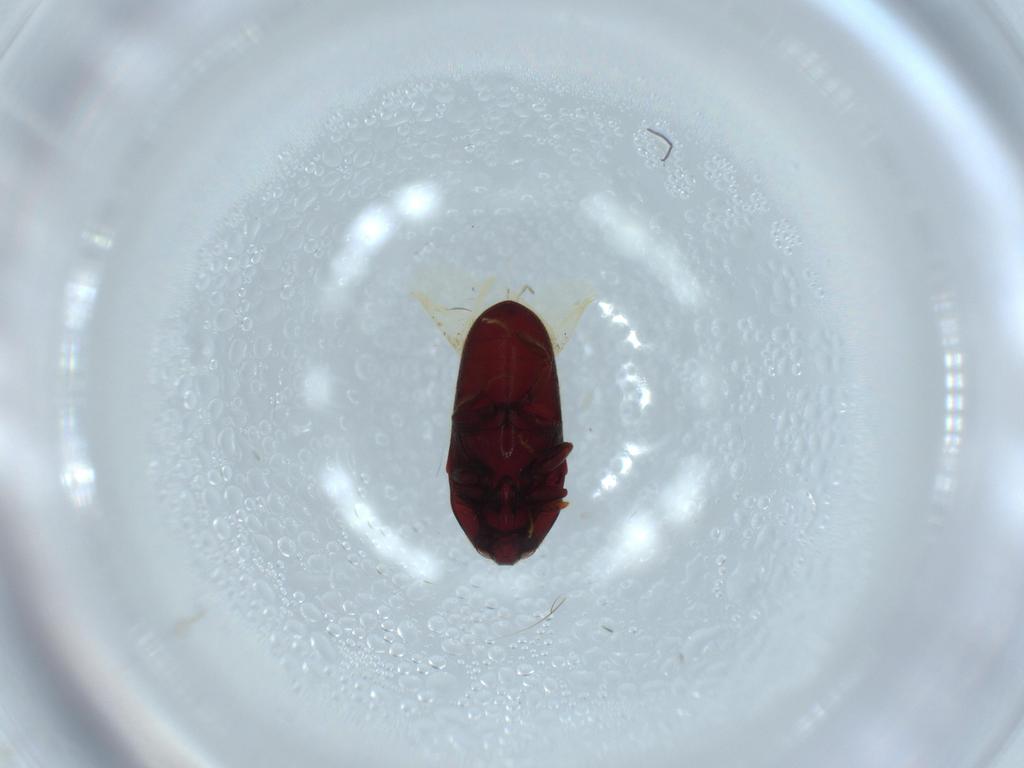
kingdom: Animalia
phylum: Arthropoda
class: Insecta
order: Coleoptera
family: Throscidae
